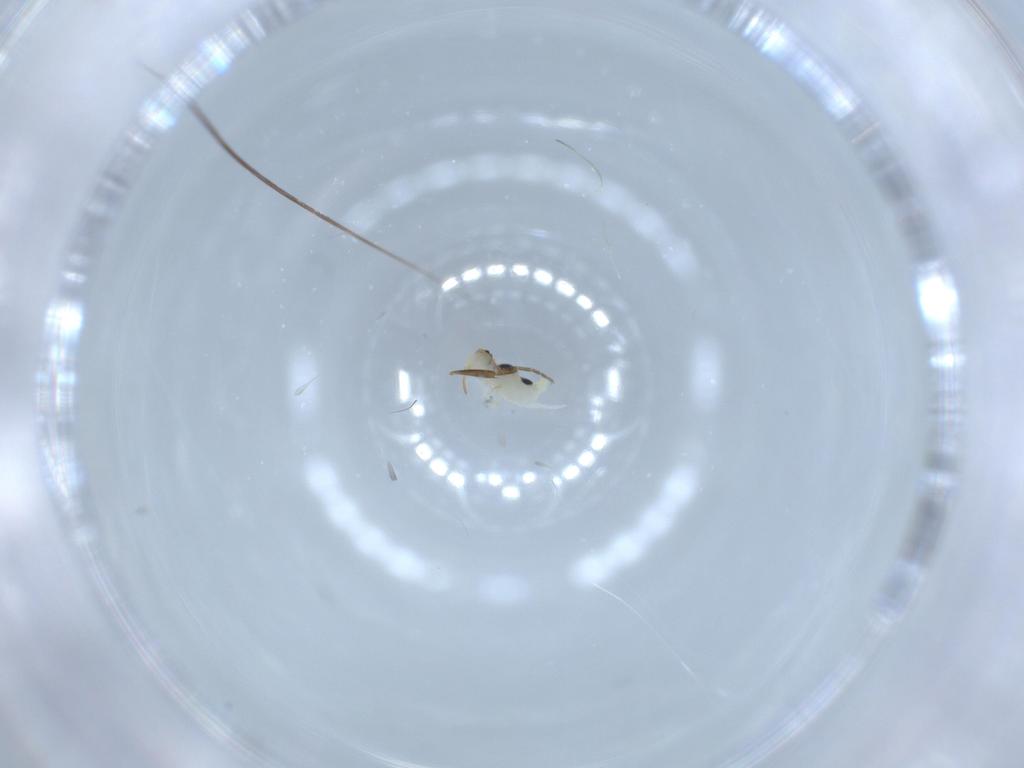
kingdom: Animalia
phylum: Arthropoda
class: Collembola
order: Symphypleona
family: Bourletiellidae
